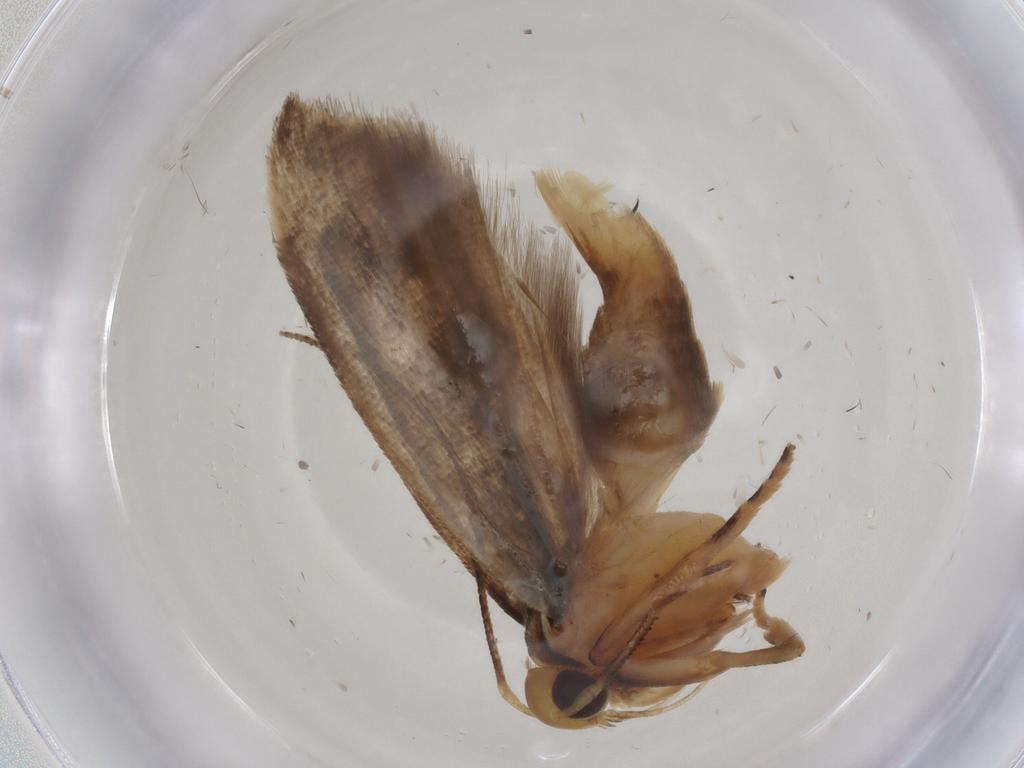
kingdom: Animalia
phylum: Arthropoda
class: Insecta
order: Lepidoptera
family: Gelechiidae
